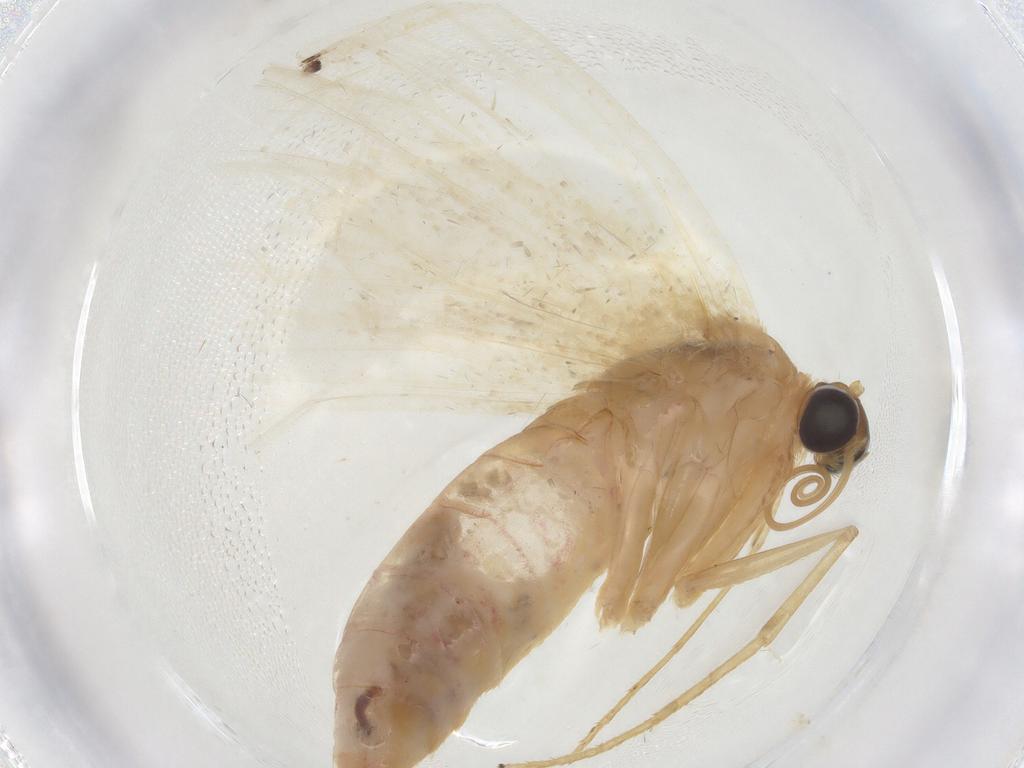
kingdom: Animalia
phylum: Arthropoda
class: Insecta
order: Lepidoptera
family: Geometridae
